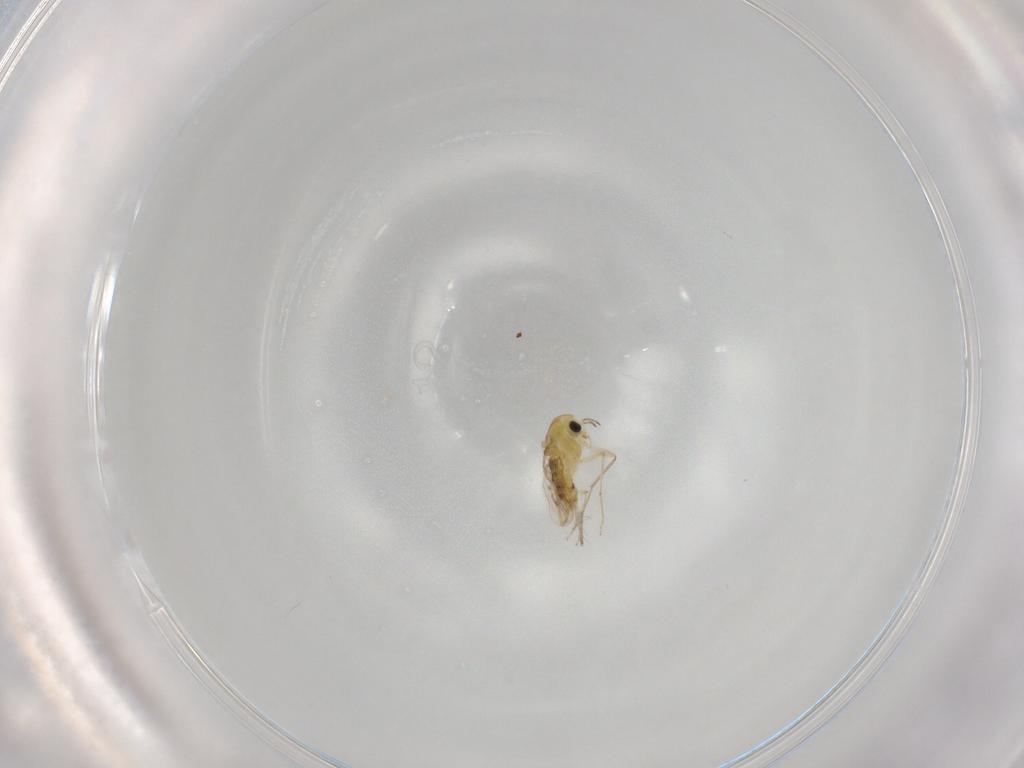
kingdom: Animalia
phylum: Arthropoda
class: Insecta
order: Diptera
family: Chironomidae
